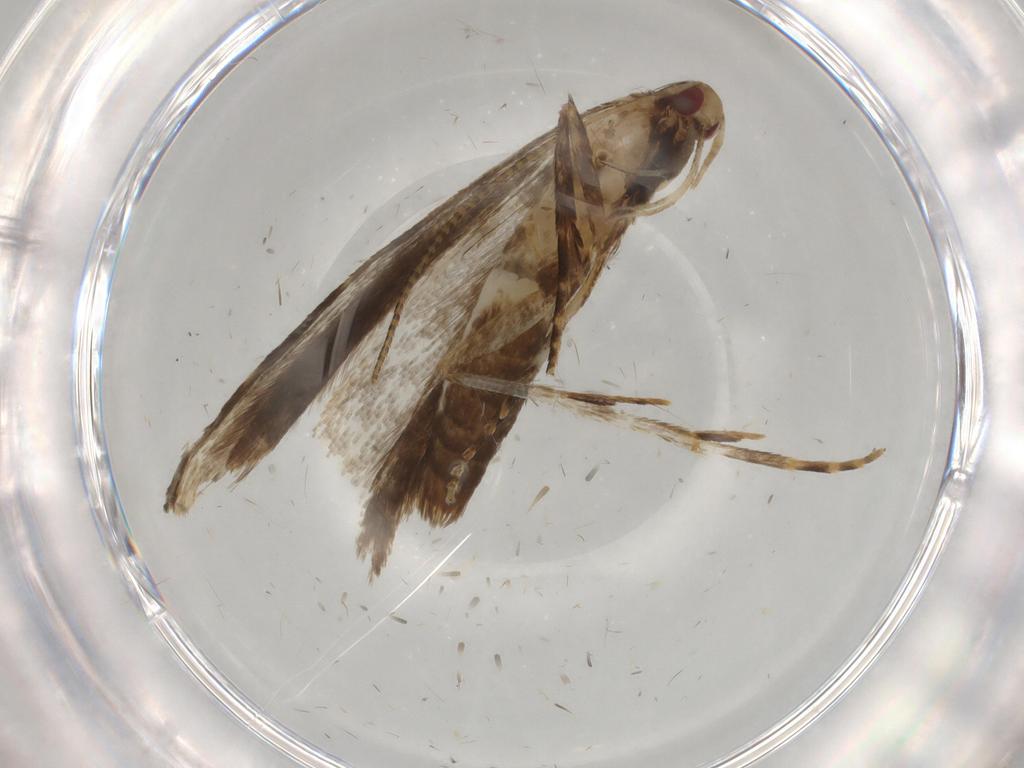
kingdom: Animalia
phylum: Arthropoda
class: Insecta
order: Lepidoptera
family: Gelechiidae
